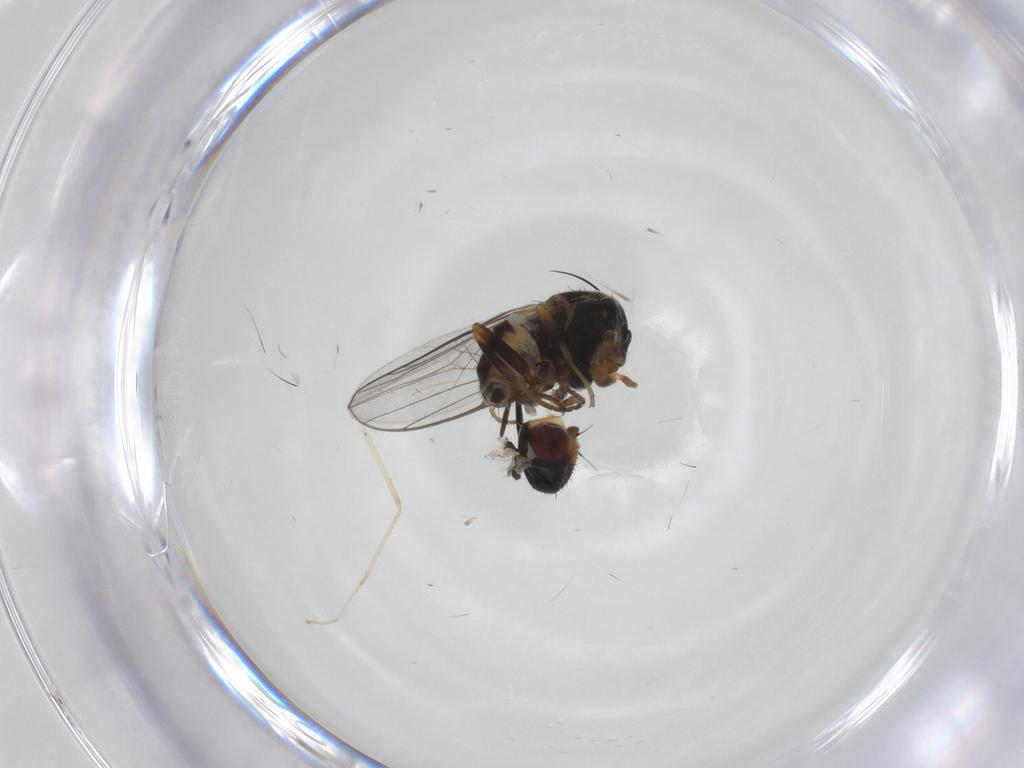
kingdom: Animalia
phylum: Arthropoda
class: Insecta
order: Diptera
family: Chloropidae
